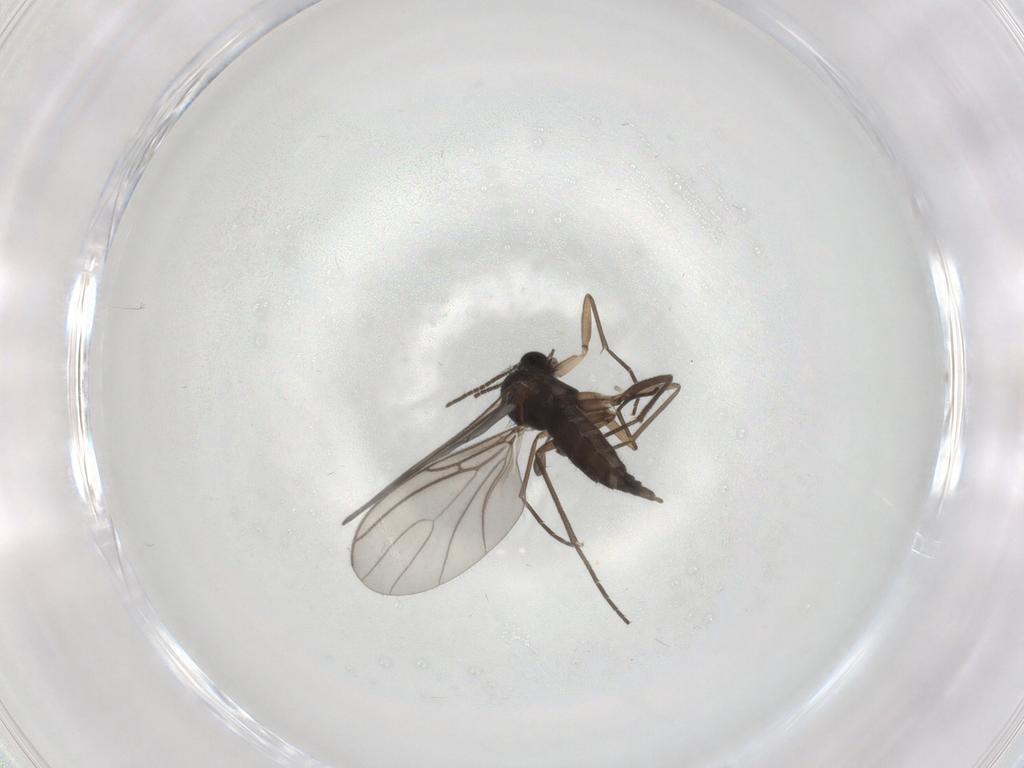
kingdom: Animalia
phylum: Arthropoda
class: Insecta
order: Diptera
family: Sciaridae
